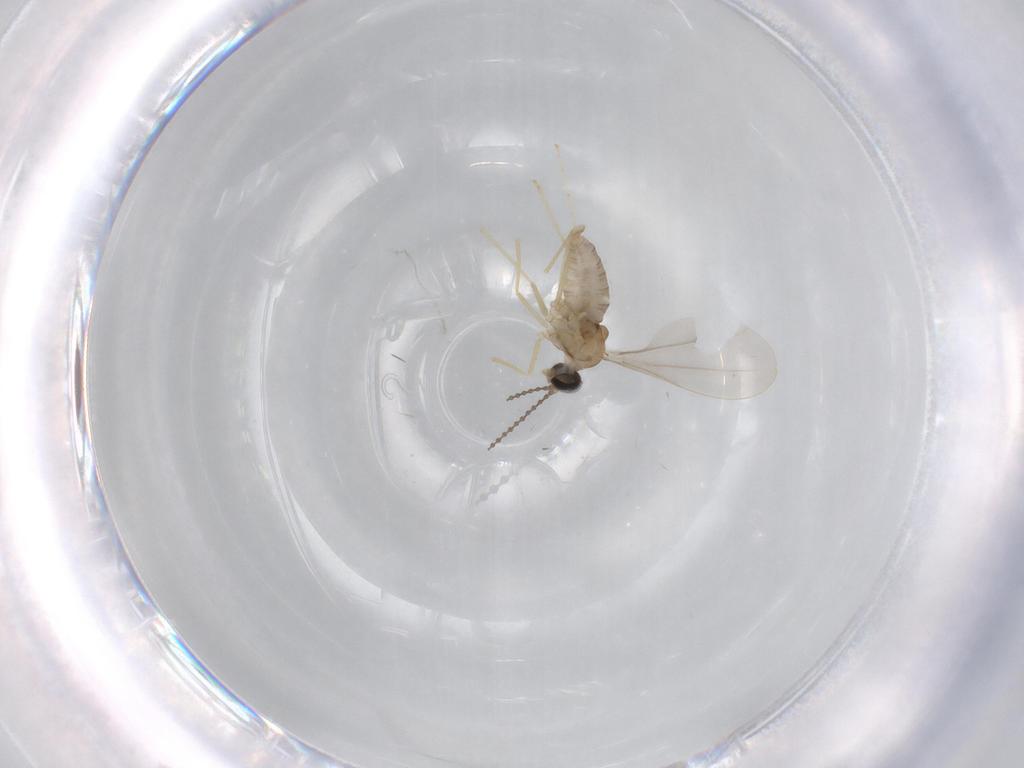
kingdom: Animalia
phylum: Arthropoda
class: Insecta
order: Diptera
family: Cecidomyiidae
